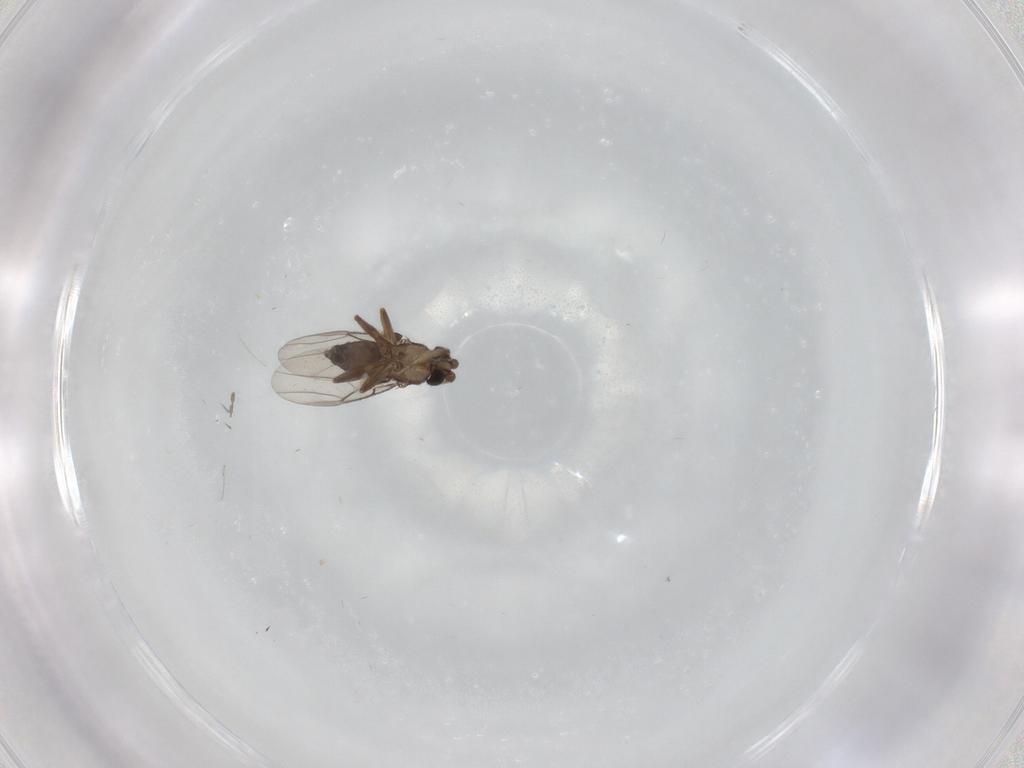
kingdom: Animalia
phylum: Arthropoda
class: Insecta
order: Diptera
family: Phoridae
